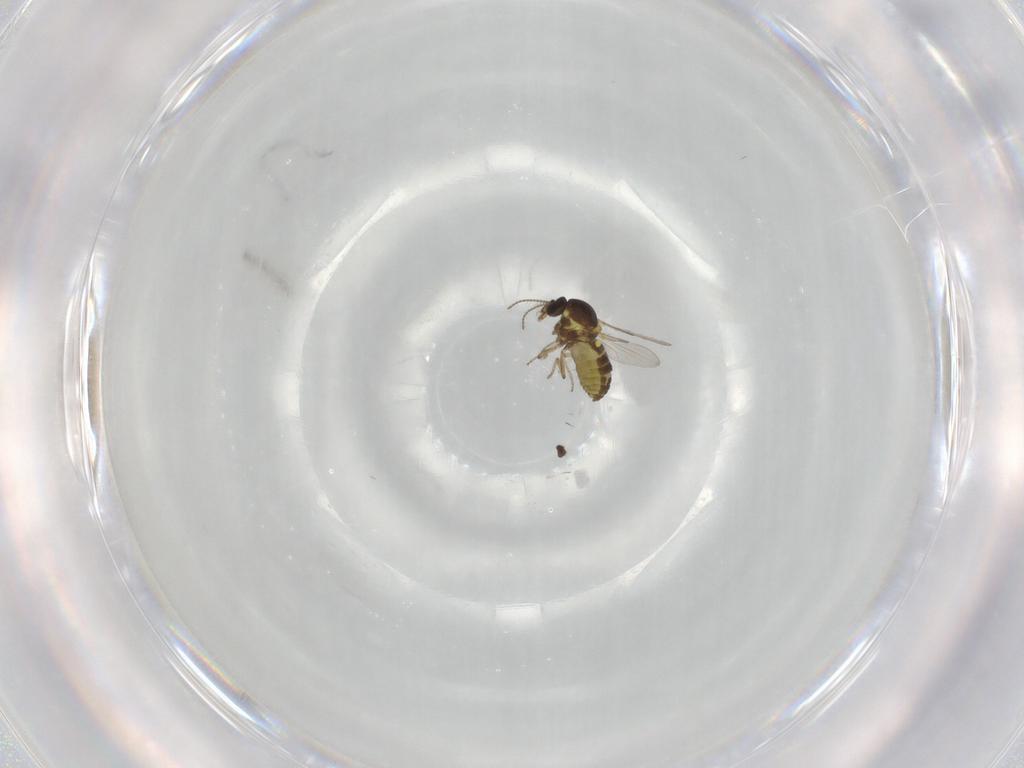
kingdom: Animalia
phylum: Arthropoda
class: Insecta
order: Diptera
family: Ceratopogonidae
